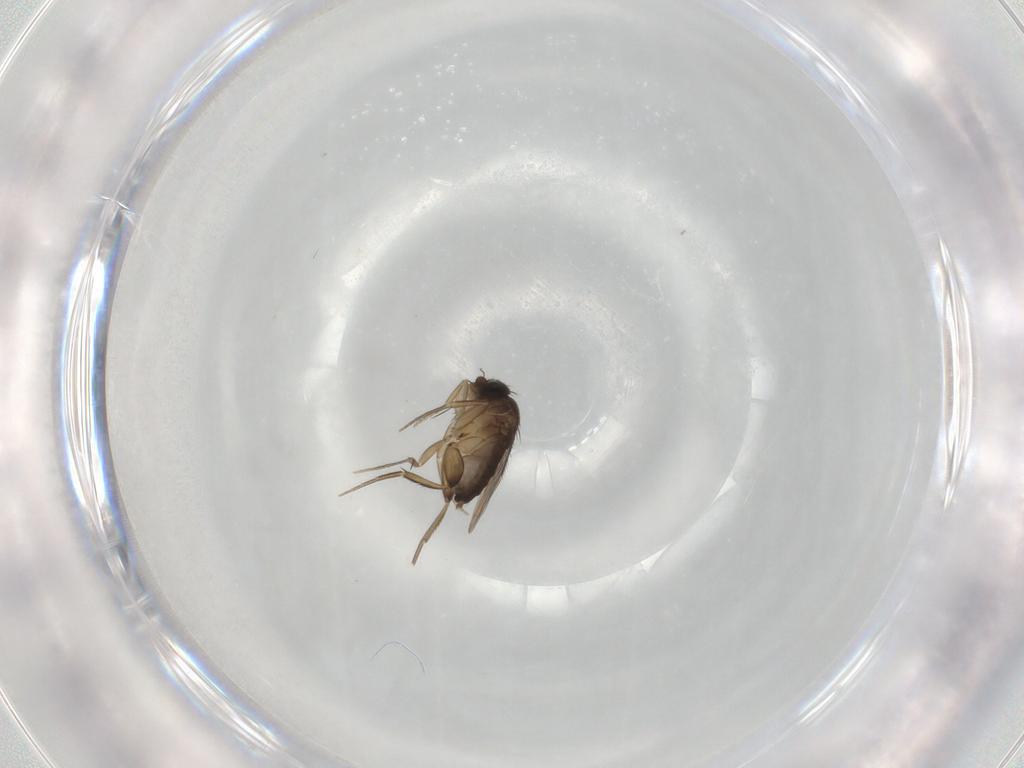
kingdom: Animalia
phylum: Arthropoda
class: Insecta
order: Diptera
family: Phoridae
